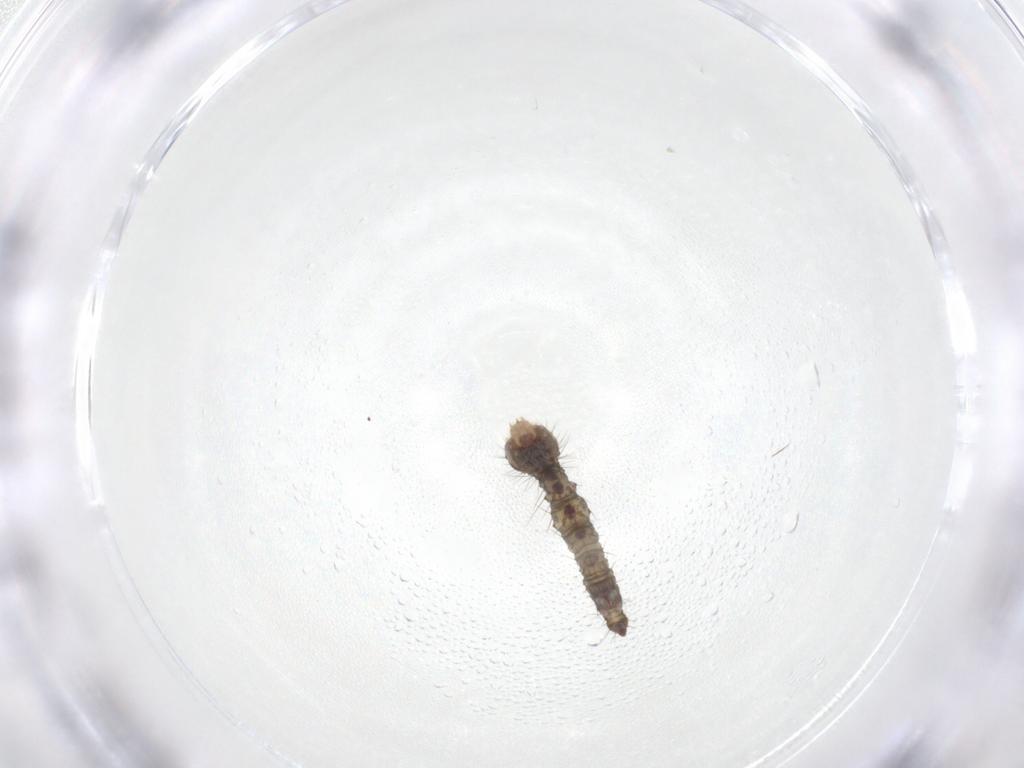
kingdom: Animalia
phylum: Arthropoda
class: Insecta
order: Lepidoptera
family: Erebidae
